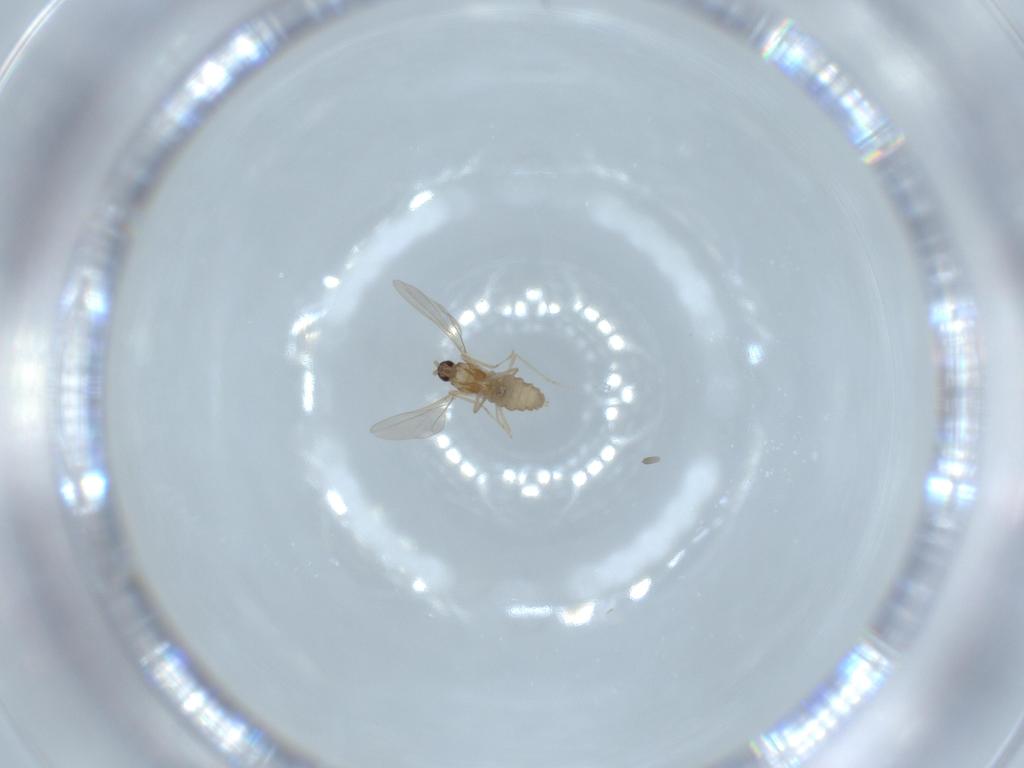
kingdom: Animalia
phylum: Arthropoda
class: Insecta
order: Diptera
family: Cecidomyiidae
